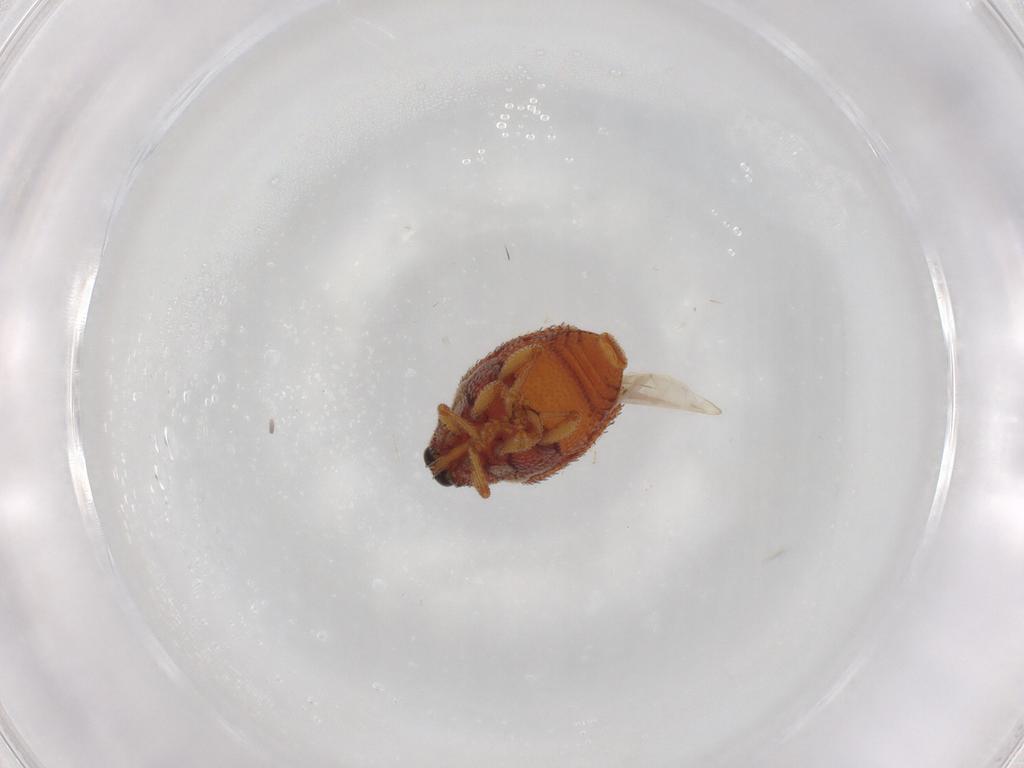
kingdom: Animalia
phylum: Arthropoda
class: Insecta
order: Coleoptera
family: Curculionidae
